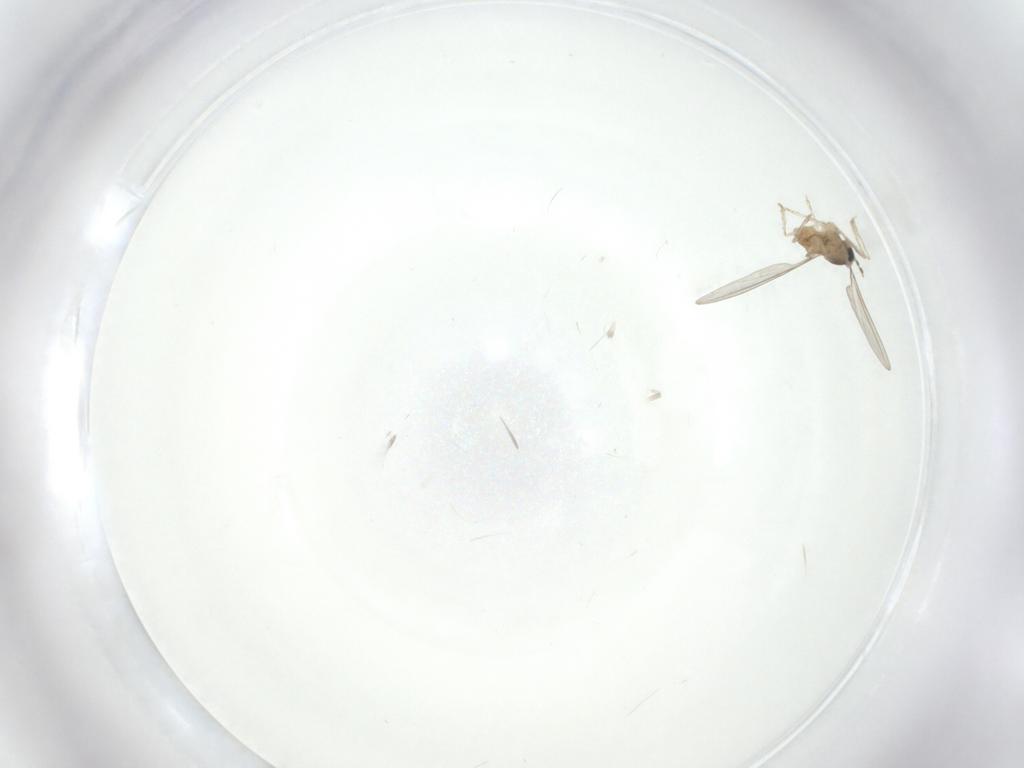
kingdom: Animalia
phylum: Arthropoda
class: Insecta
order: Diptera
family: Cecidomyiidae
